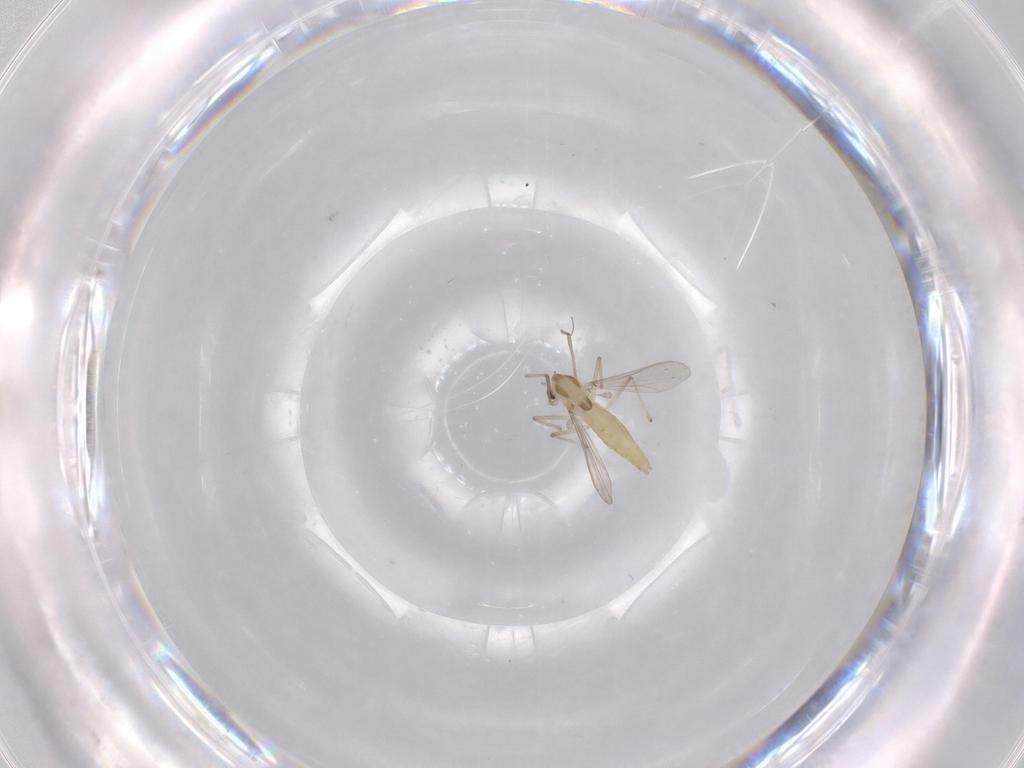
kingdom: Animalia
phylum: Arthropoda
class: Insecta
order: Diptera
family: Chironomidae
